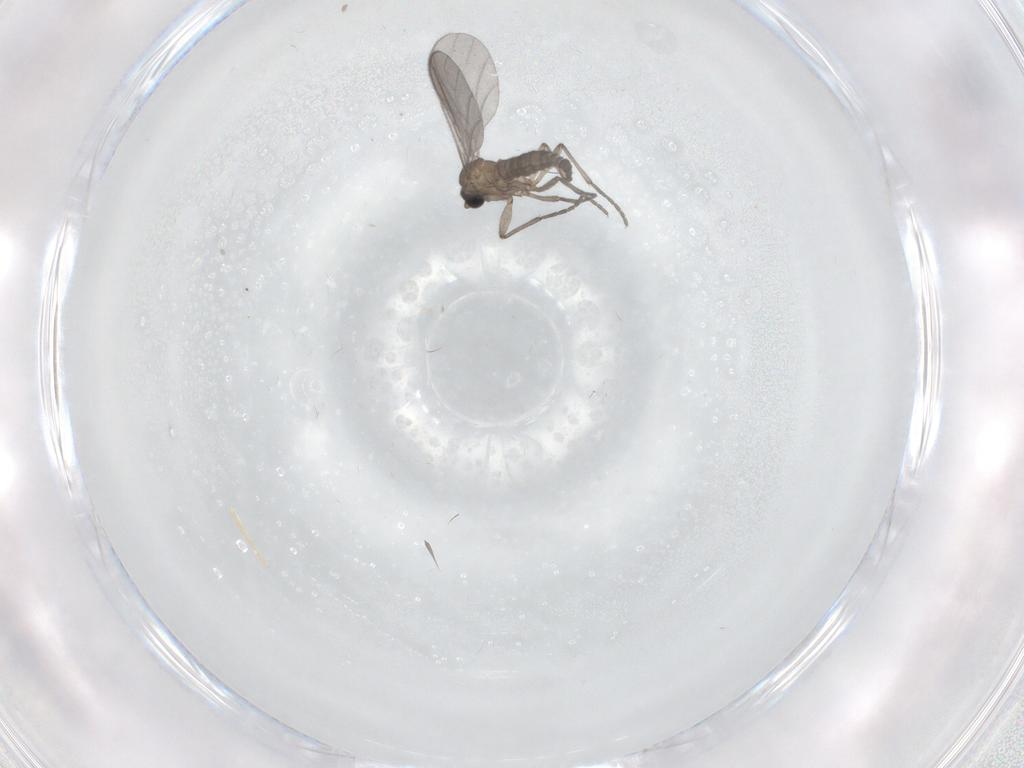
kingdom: Animalia
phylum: Arthropoda
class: Insecta
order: Diptera
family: Sciaridae
